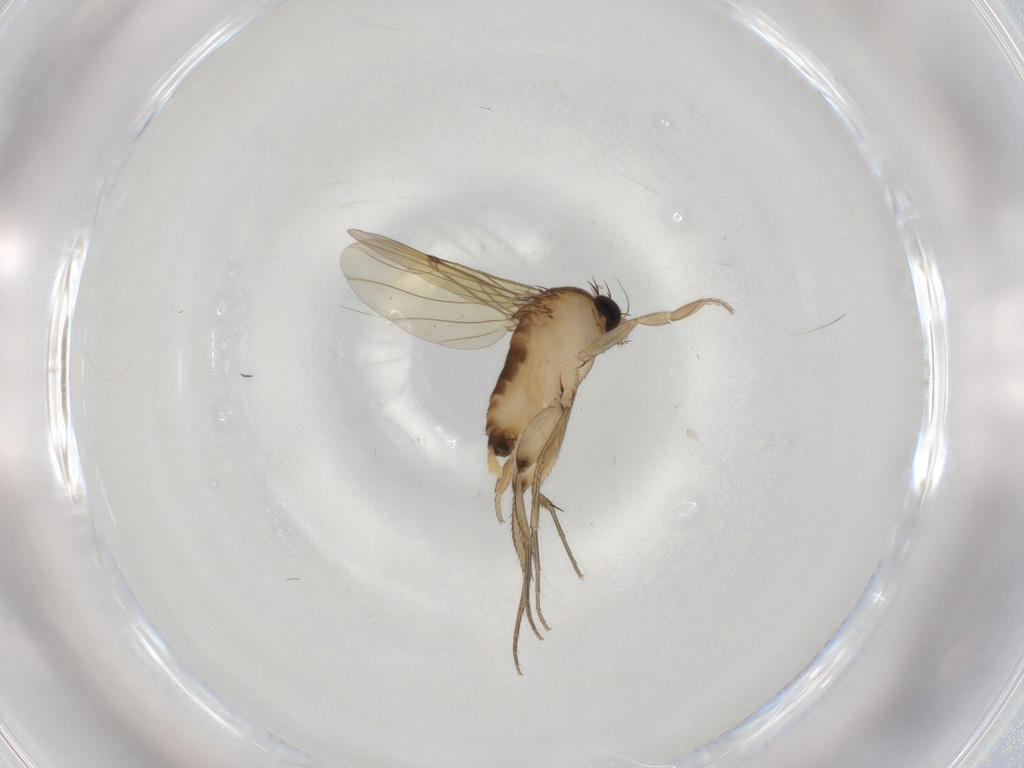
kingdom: Animalia
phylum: Arthropoda
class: Insecta
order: Diptera
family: Phoridae
